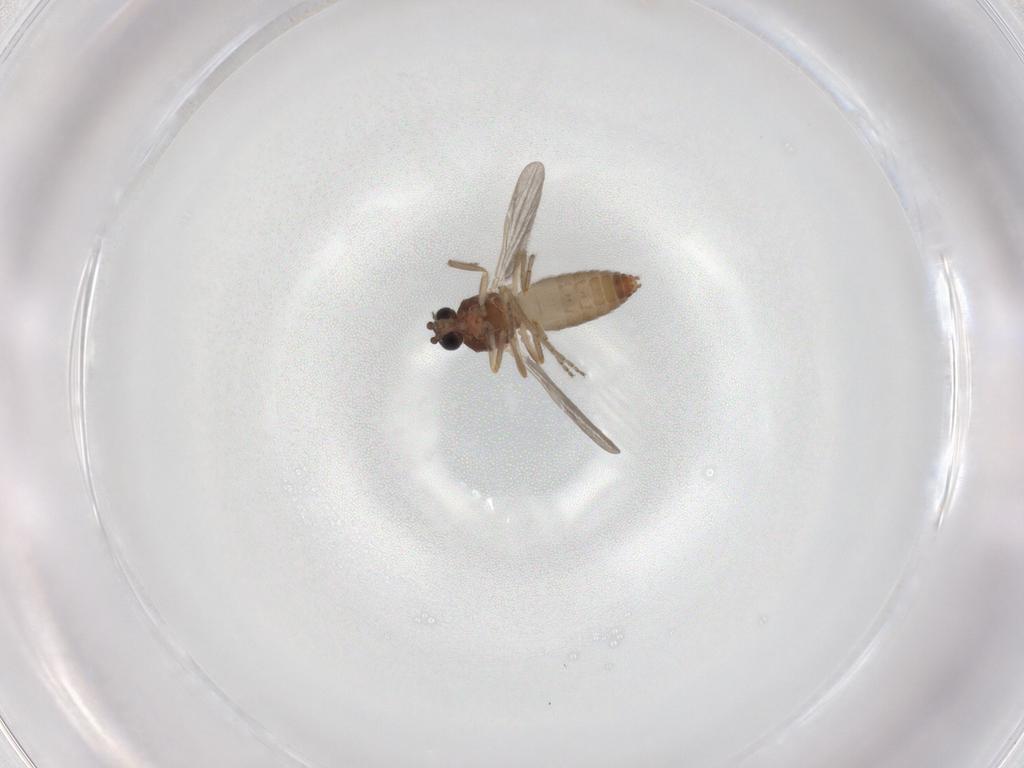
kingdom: Animalia
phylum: Arthropoda
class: Insecta
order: Diptera
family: Ceratopogonidae
